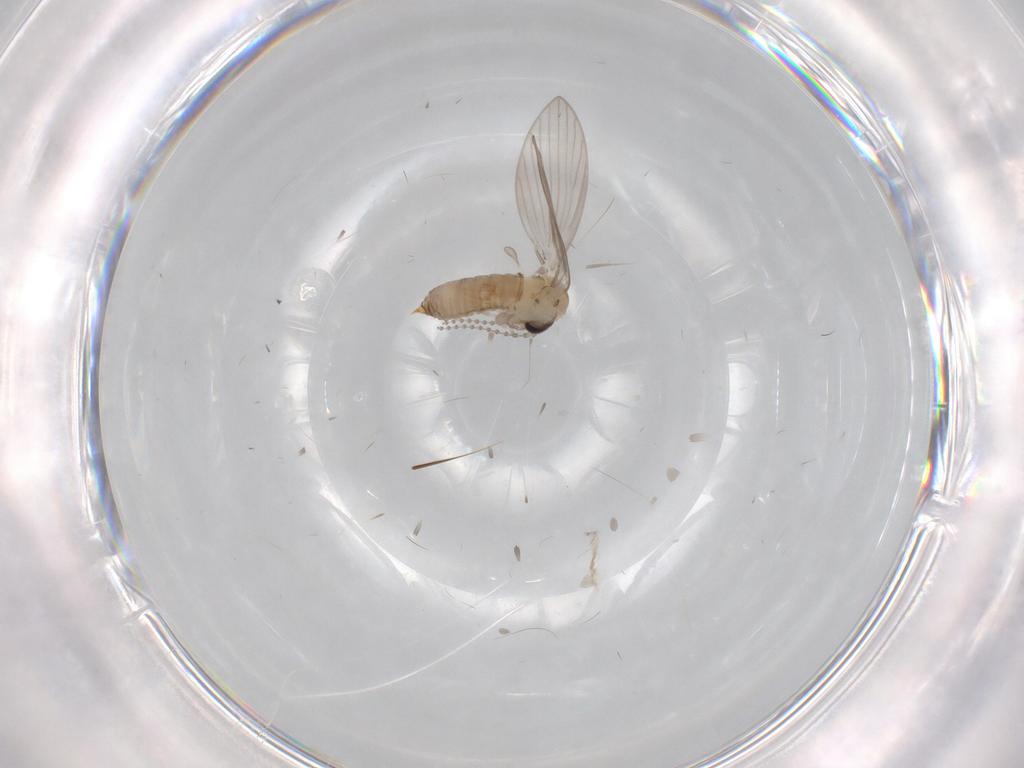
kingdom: Animalia
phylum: Arthropoda
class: Insecta
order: Diptera
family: Psychodidae
